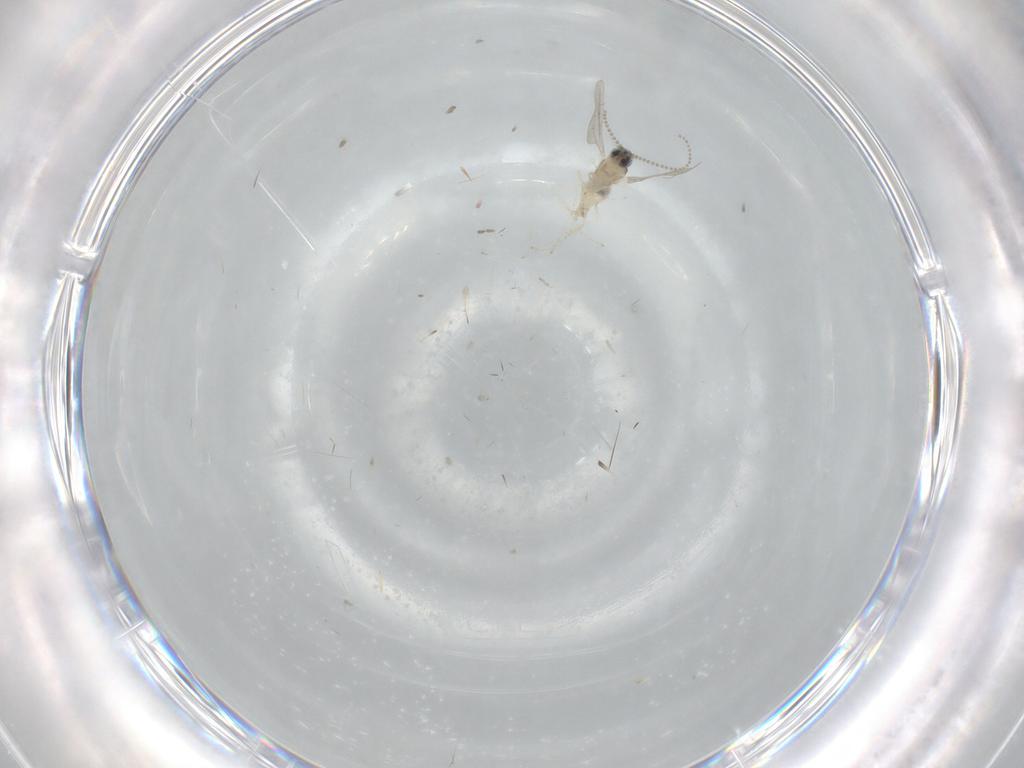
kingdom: Animalia
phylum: Arthropoda
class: Insecta
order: Diptera
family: Cecidomyiidae
